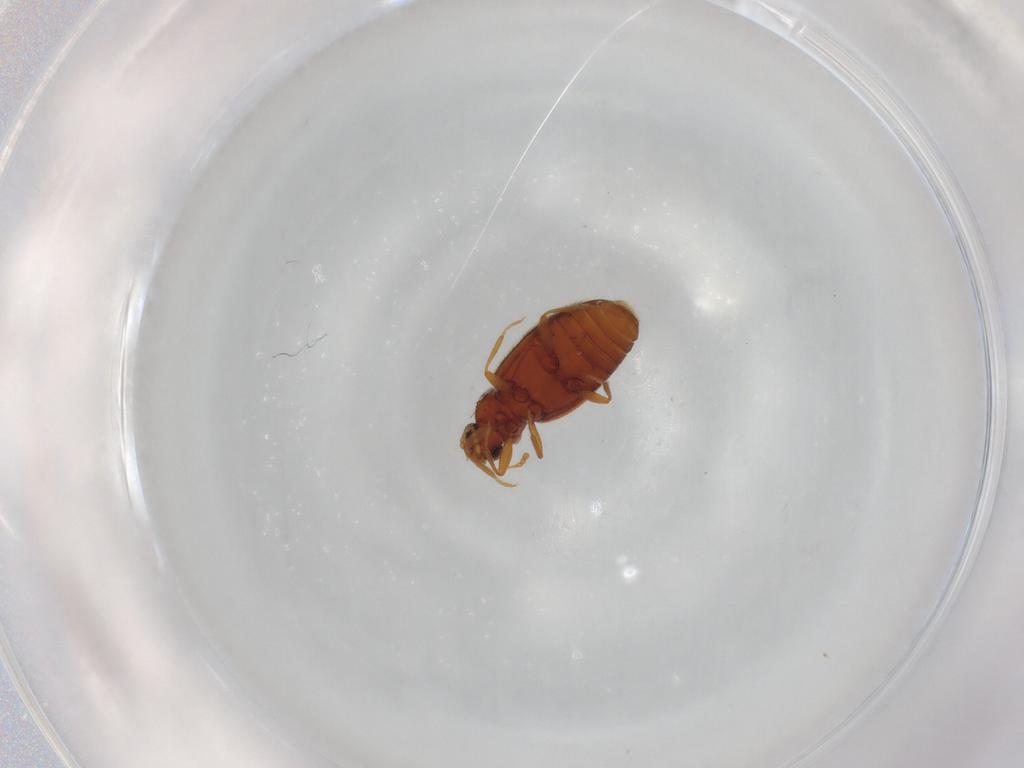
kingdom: Animalia
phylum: Arthropoda
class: Insecta
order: Coleoptera
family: Latridiidae
